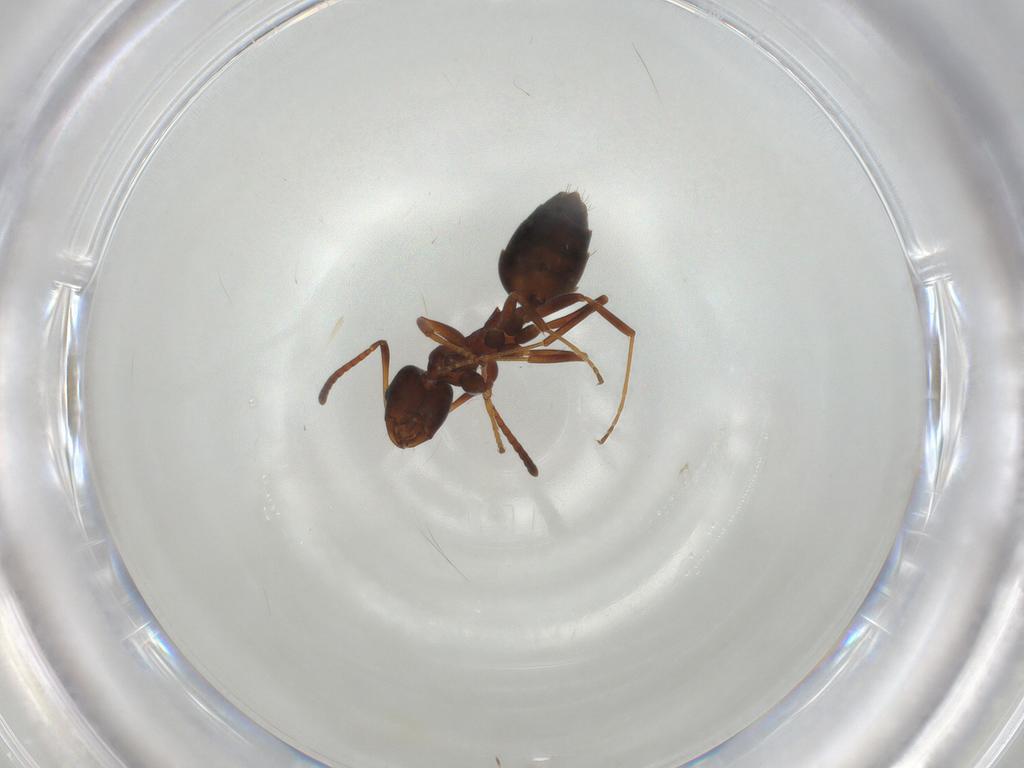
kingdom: Animalia
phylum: Arthropoda
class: Insecta
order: Hymenoptera
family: Formicidae
